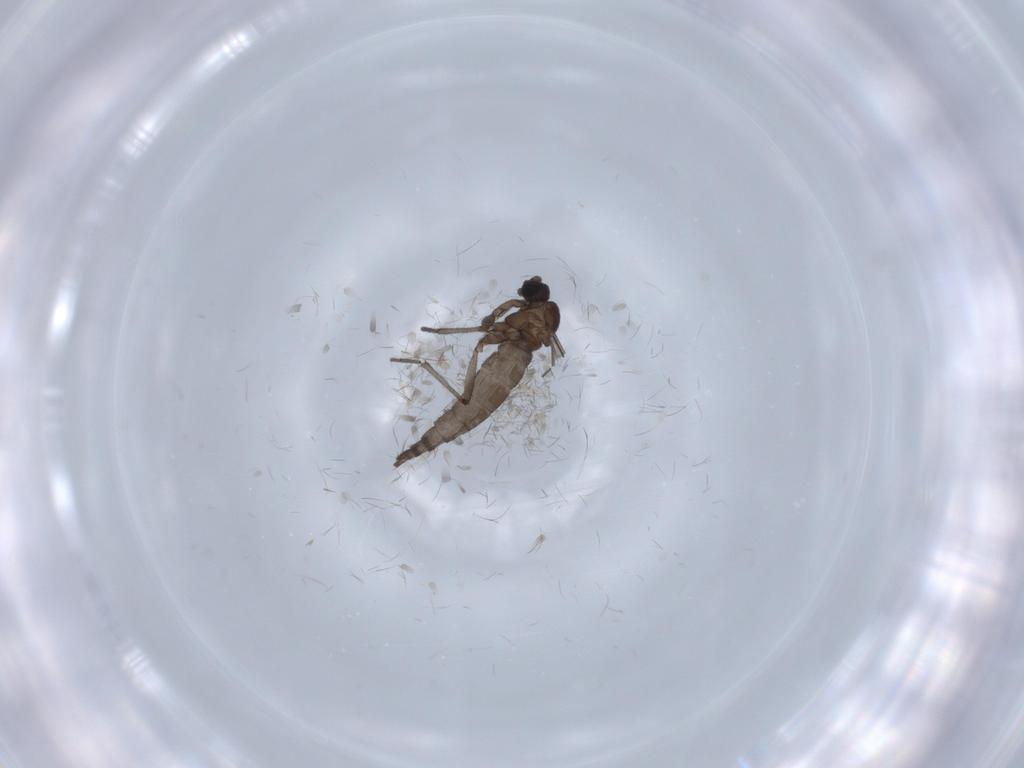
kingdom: Animalia
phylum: Arthropoda
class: Insecta
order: Diptera
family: Sciaridae
